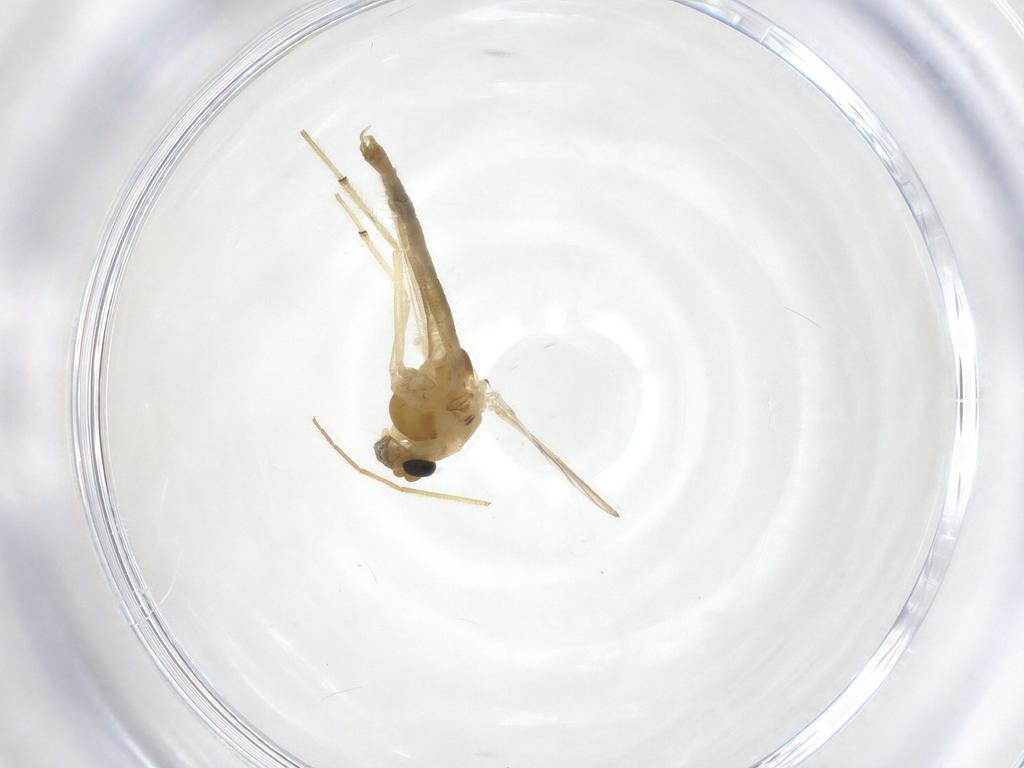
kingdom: Animalia
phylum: Arthropoda
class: Insecta
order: Diptera
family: Chironomidae
